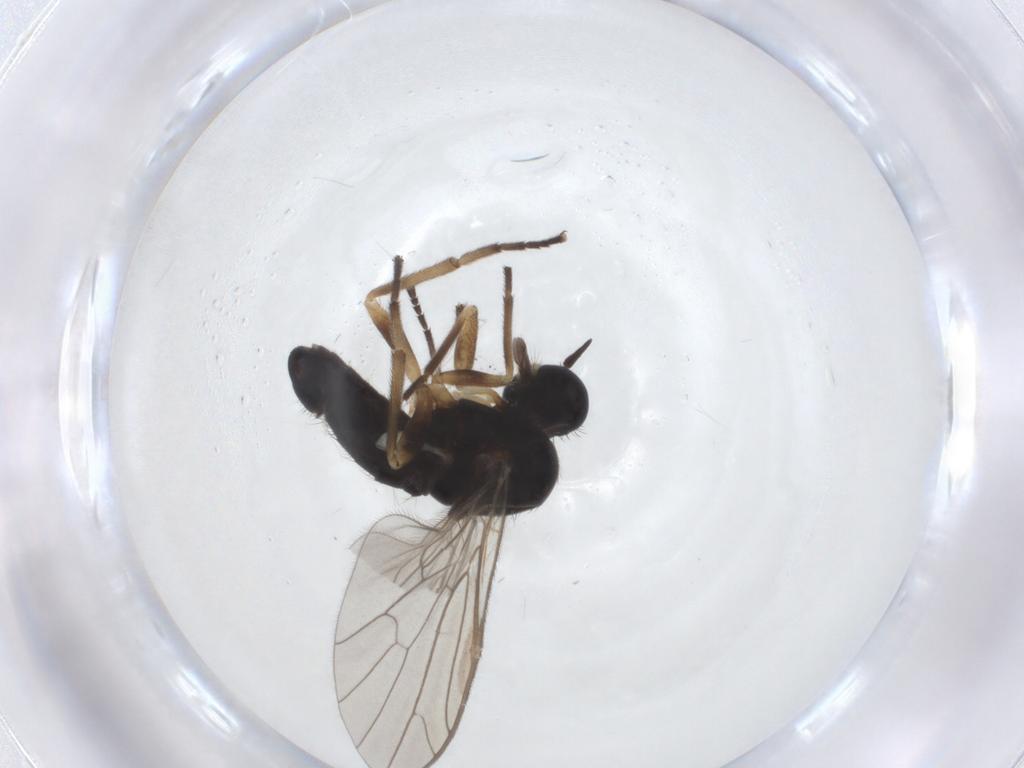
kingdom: Animalia
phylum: Arthropoda
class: Insecta
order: Diptera
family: Empididae
